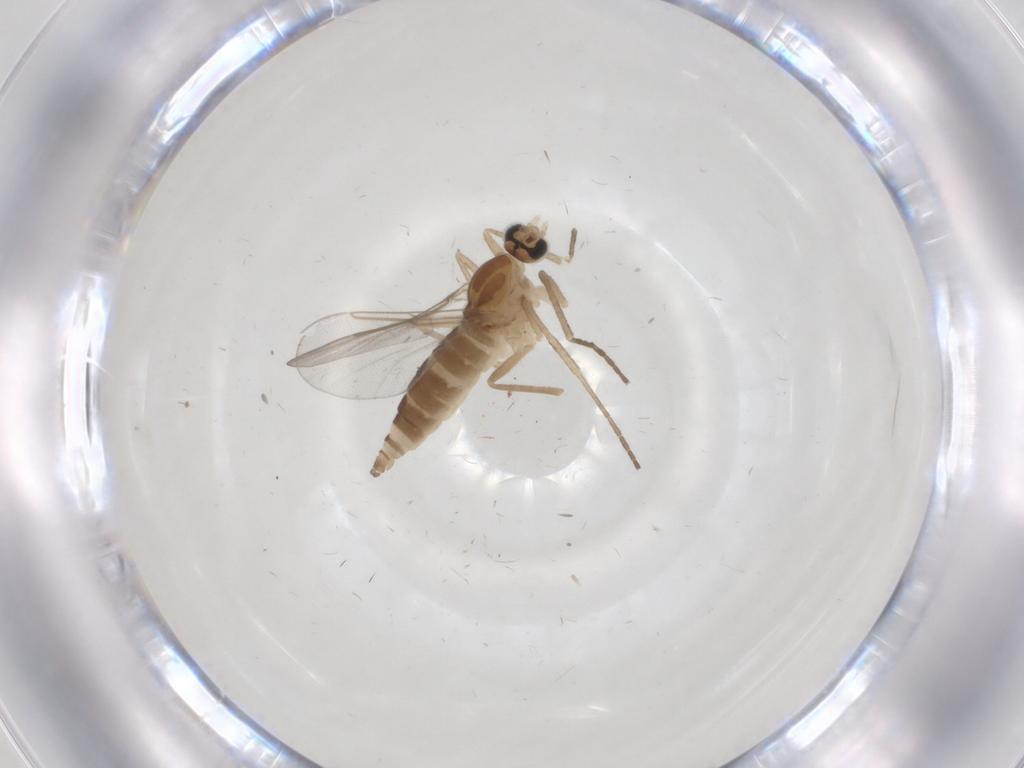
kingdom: Animalia
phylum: Arthropoda
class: Insecta
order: Diptera
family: Cecidomyiidae
